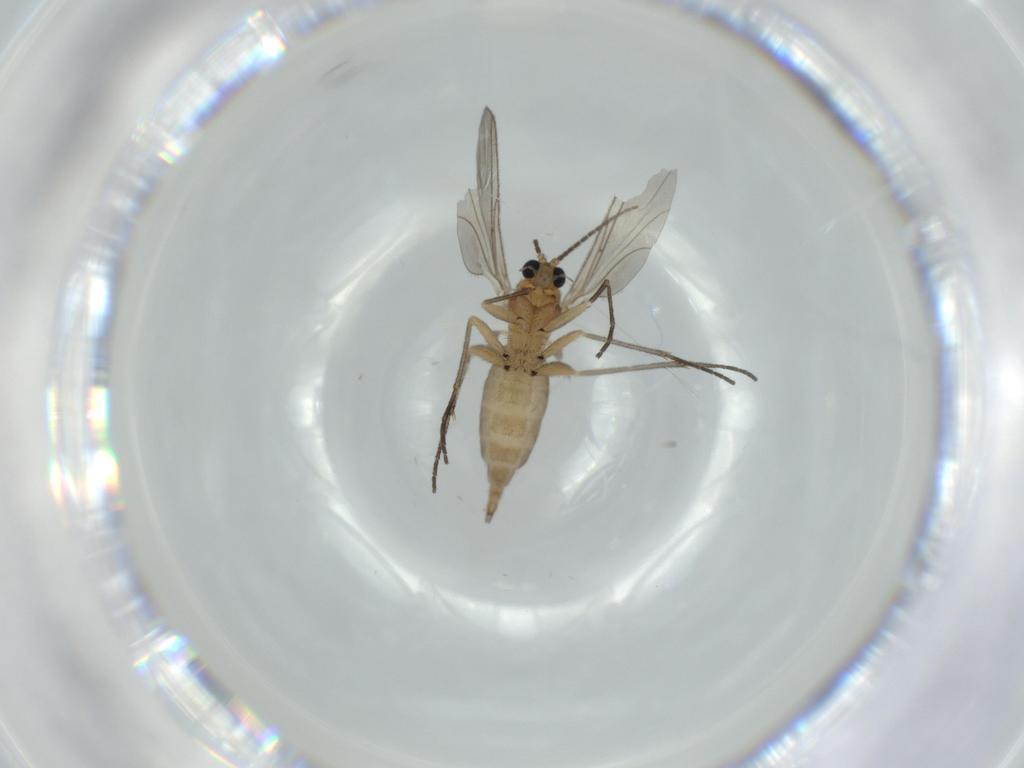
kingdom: Animalia
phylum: Arthropoda
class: Insecta
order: Diptera
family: Sciaridae
